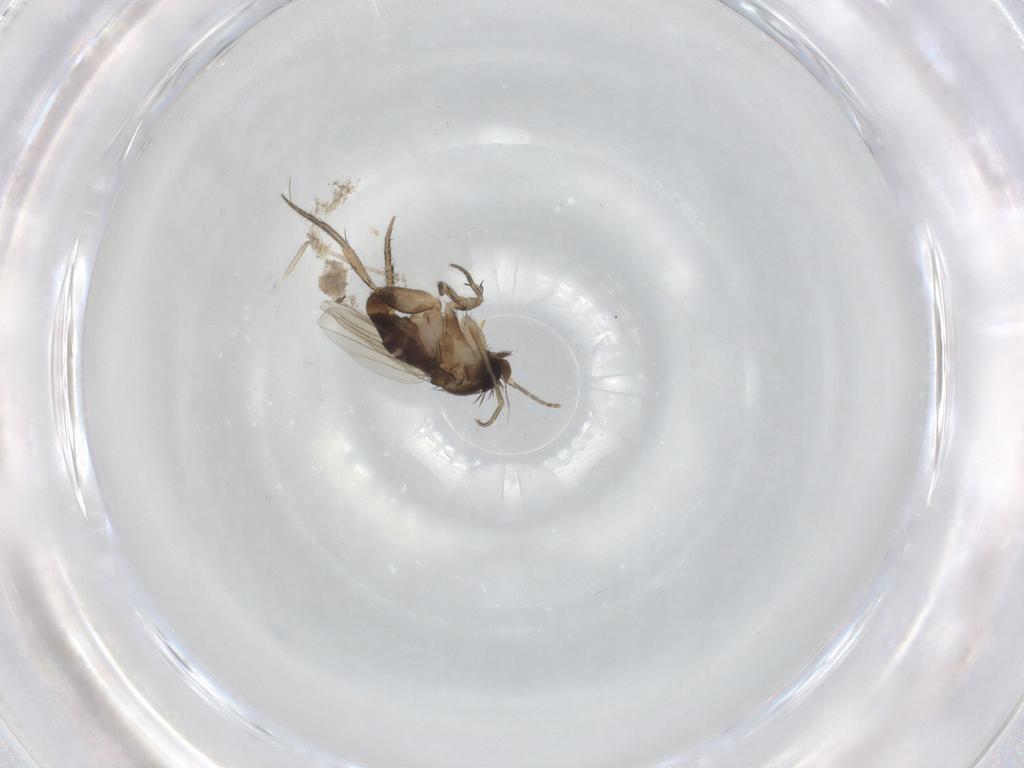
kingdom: Animalia
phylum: Arthropoda
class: Insecta
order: Diptera
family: Phoridae
